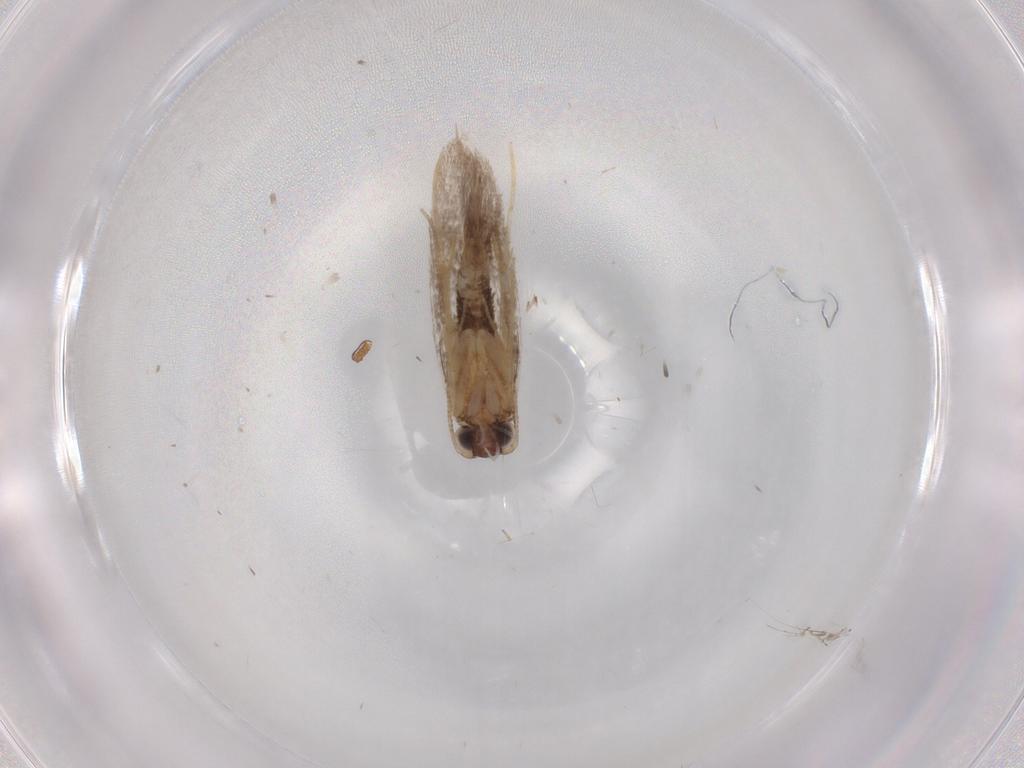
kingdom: Animalia
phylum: Arthropoda
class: Insecta
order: Lepidoptera
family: Tineidae
